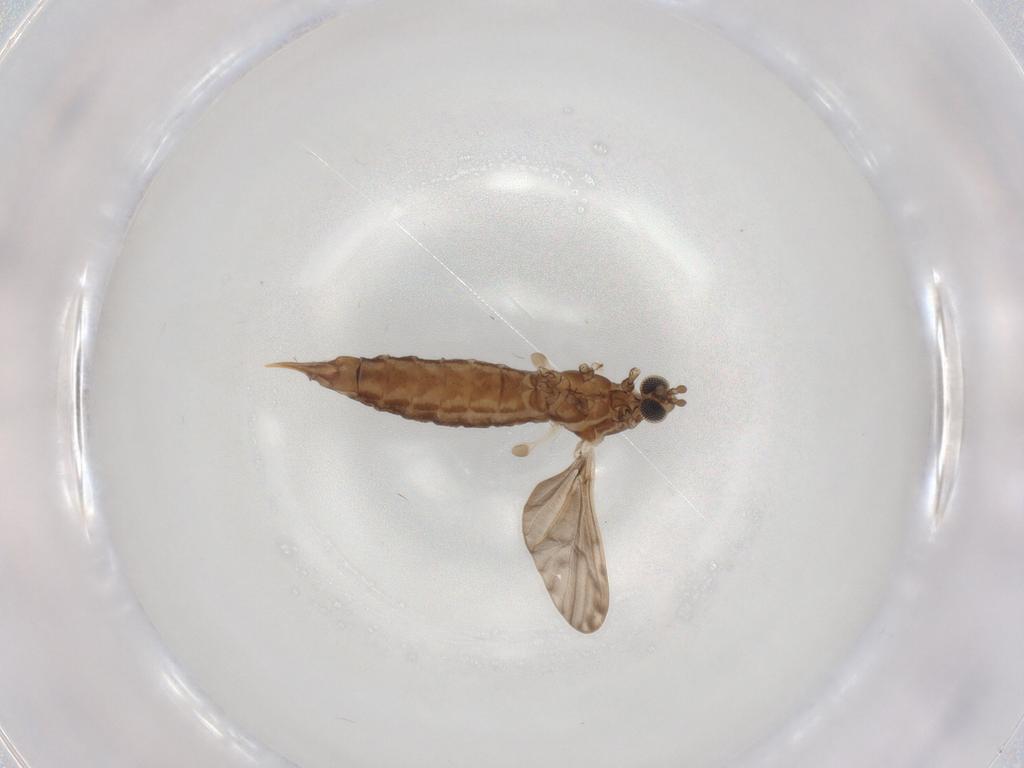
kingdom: Animalia
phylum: Arthropoda
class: Insecta
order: Diptera
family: Limoniidae
